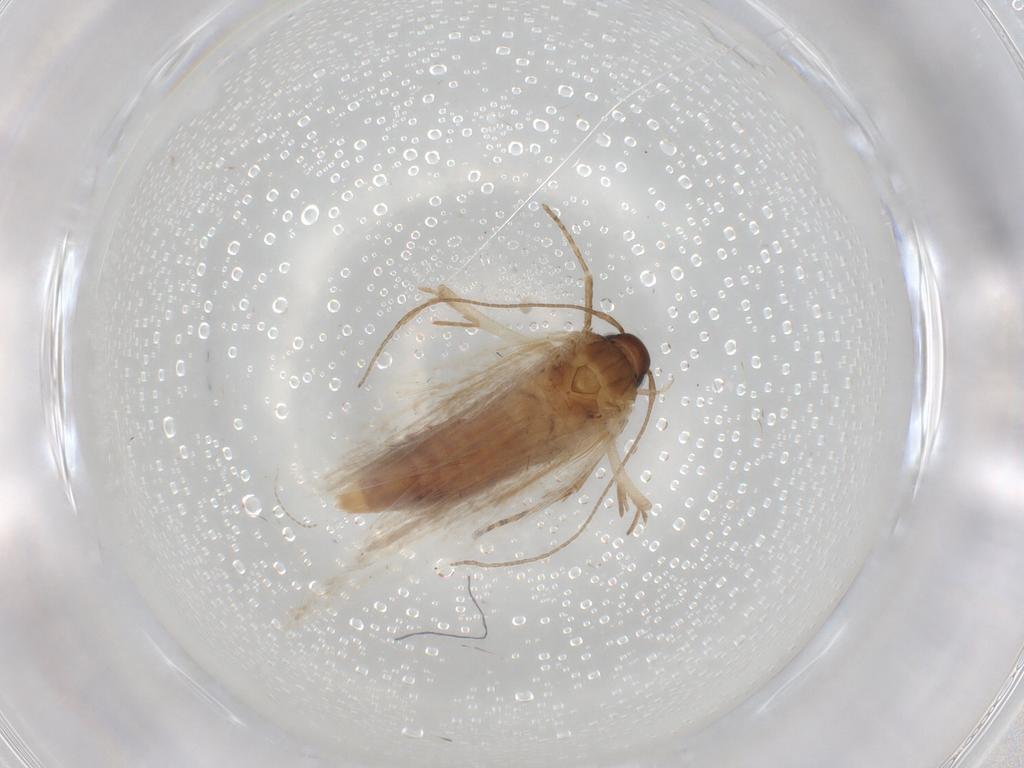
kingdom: Animalia
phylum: Arthropoda
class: Insecta
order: Lepidoptera
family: Gelechiidae
